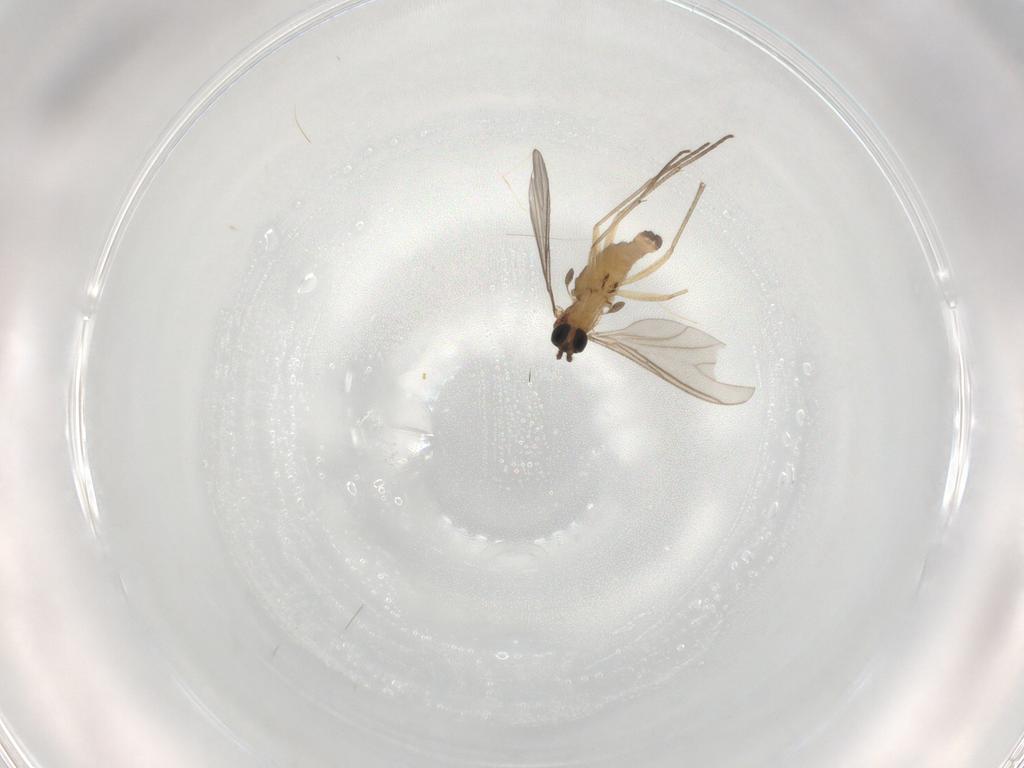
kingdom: Animalia
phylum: Arthropoda
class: Insecta
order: Diptera
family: Sciaridae
